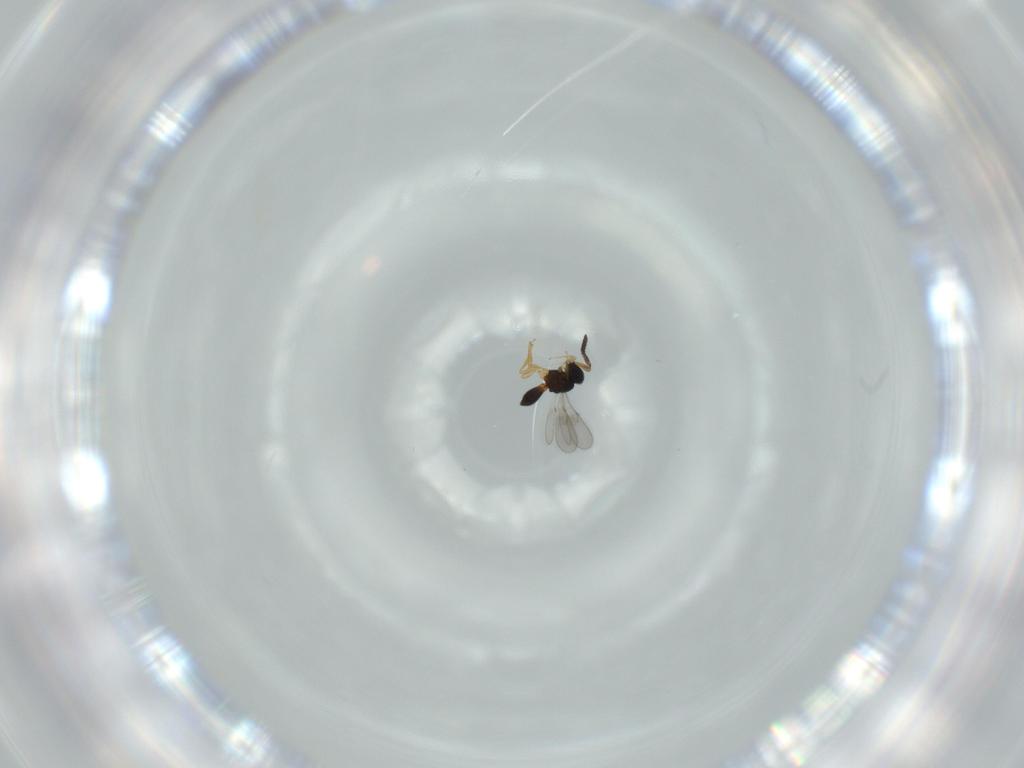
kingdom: Animalia
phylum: Arthropoda
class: Insecta
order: Hymenoptera
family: Scelionidae
